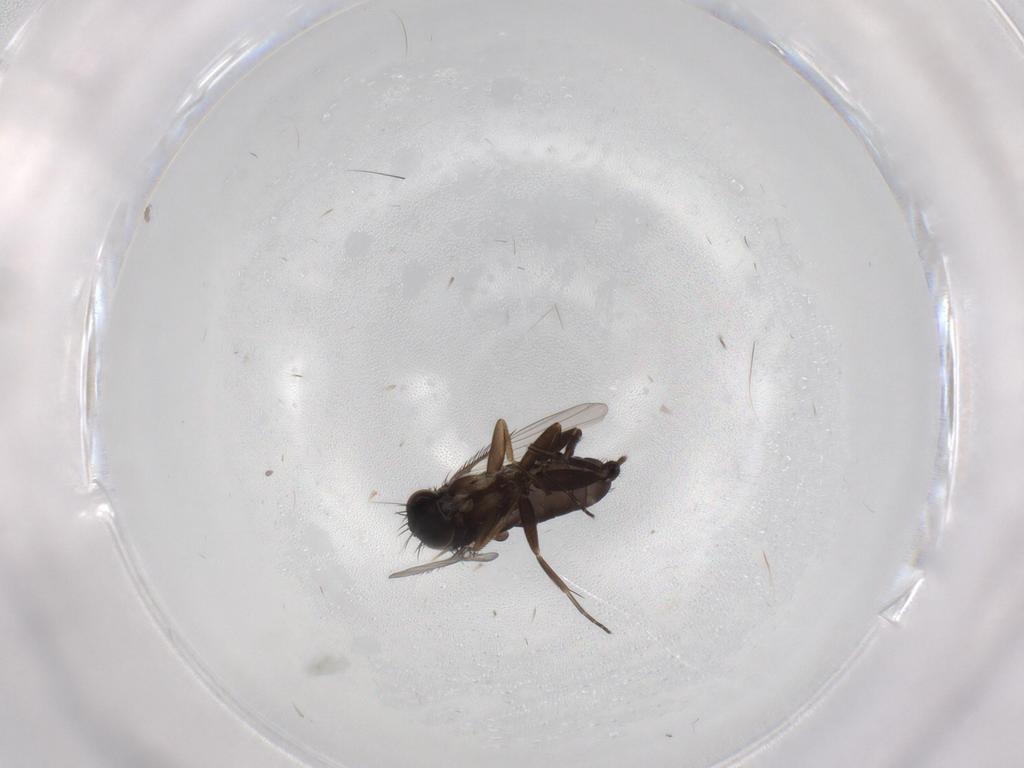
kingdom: Animalia
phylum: Arthropoda
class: Insecta
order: Diptera
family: Phoridae
